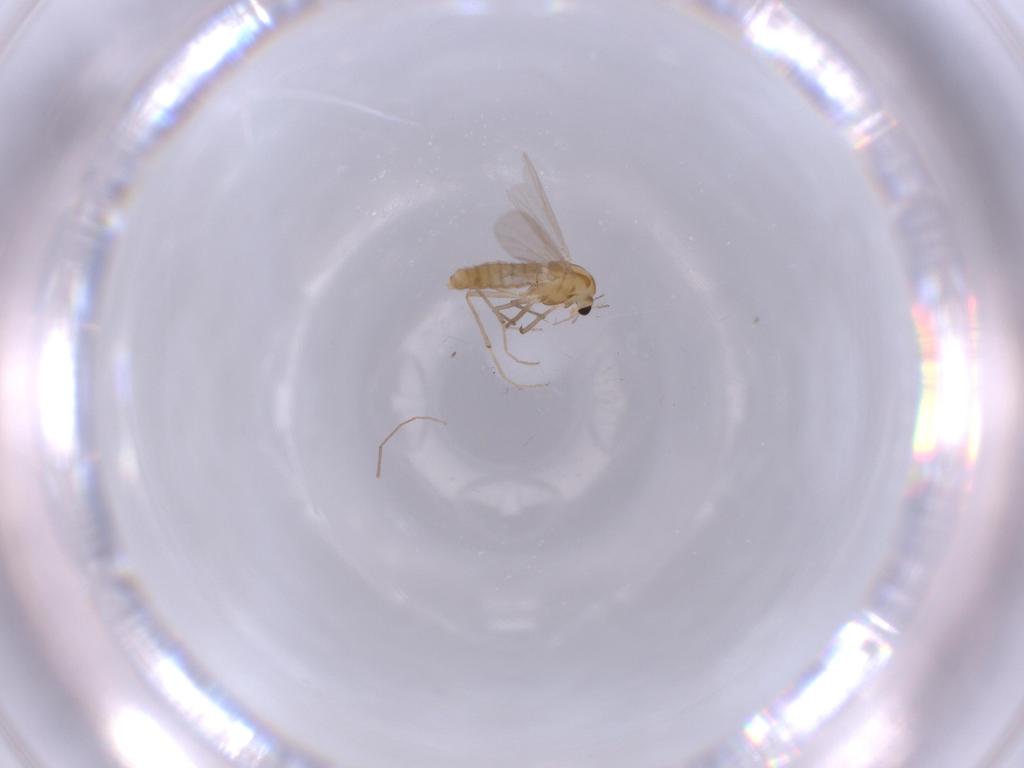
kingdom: Animalia
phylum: Arthropoda
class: Insecta
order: Diptera
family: Chironomidae
